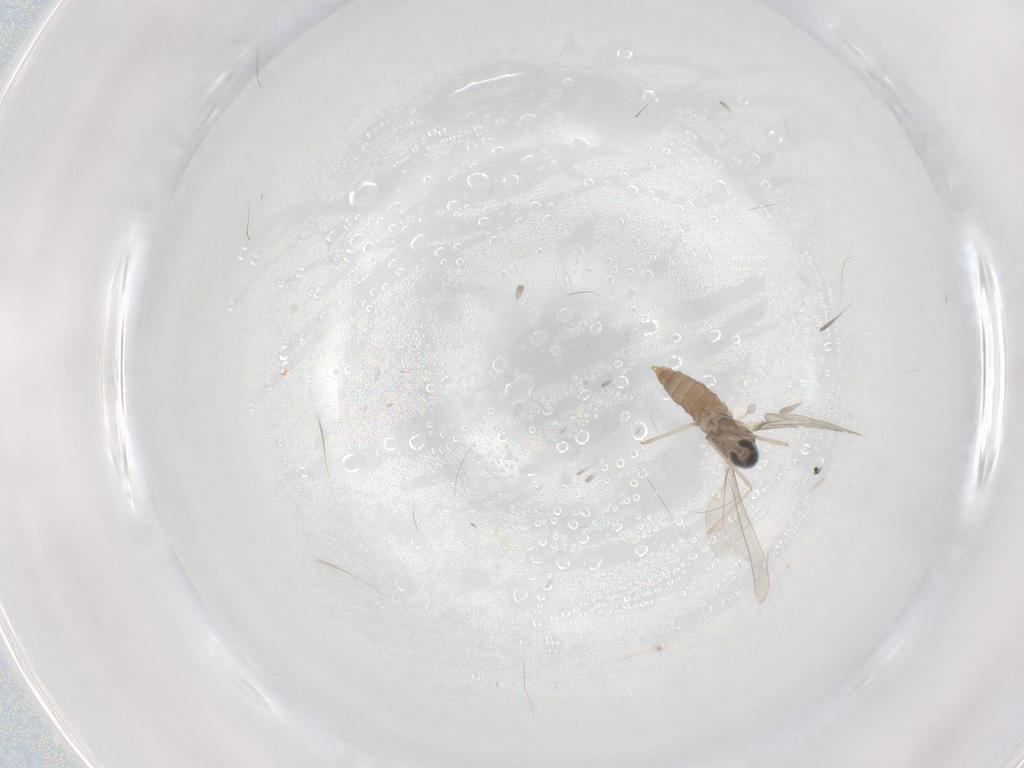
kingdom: Animalia
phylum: Arthropoda
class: Insecta
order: Diptera
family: Cecidomyiidae
